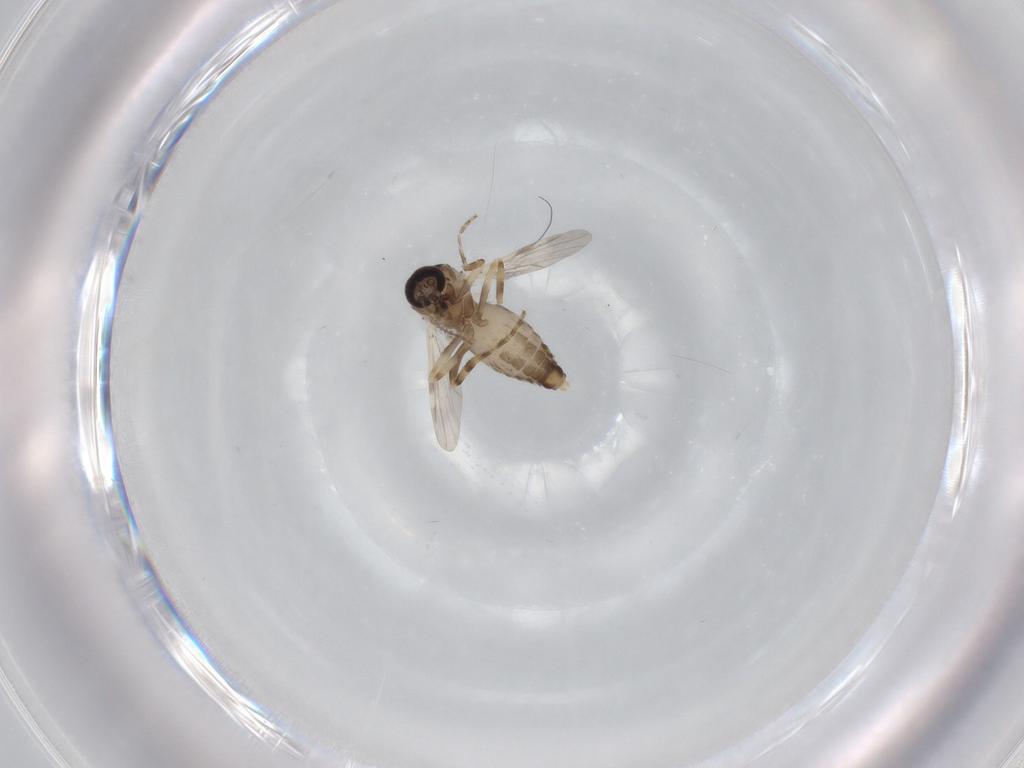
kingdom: Animalia
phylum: Arthropoda
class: Insecta
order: Diptera
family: Ceratopogonidae
